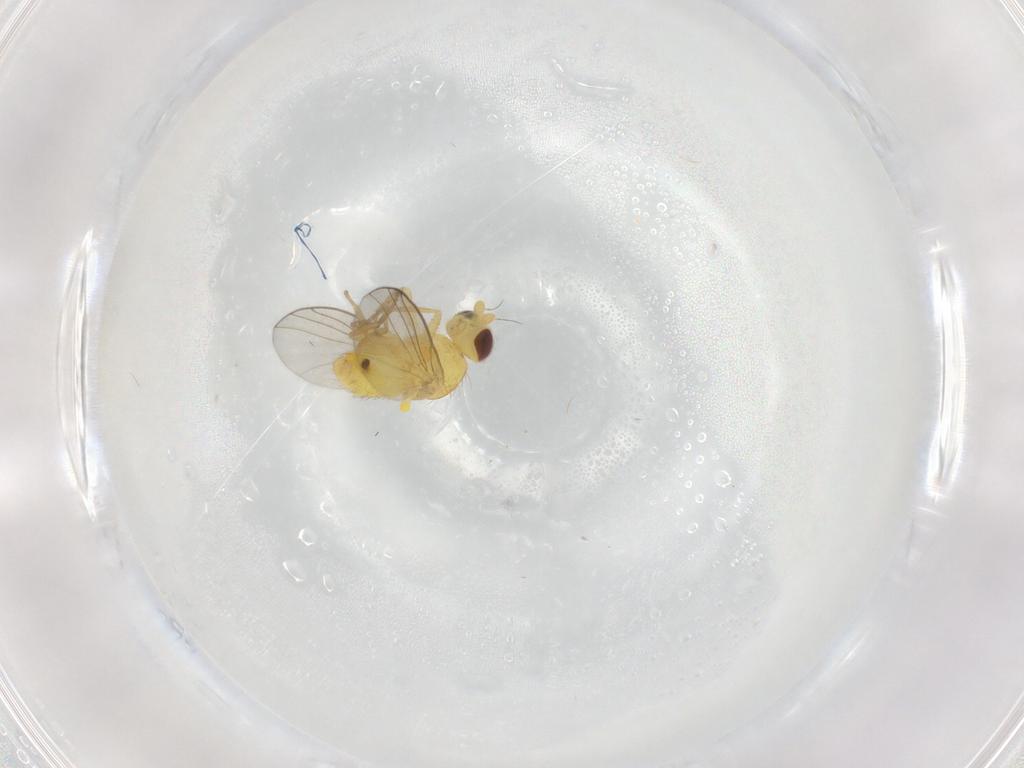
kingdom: Animalia
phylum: Arthropoda
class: Insecta
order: Diptera
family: Agromyzidae
